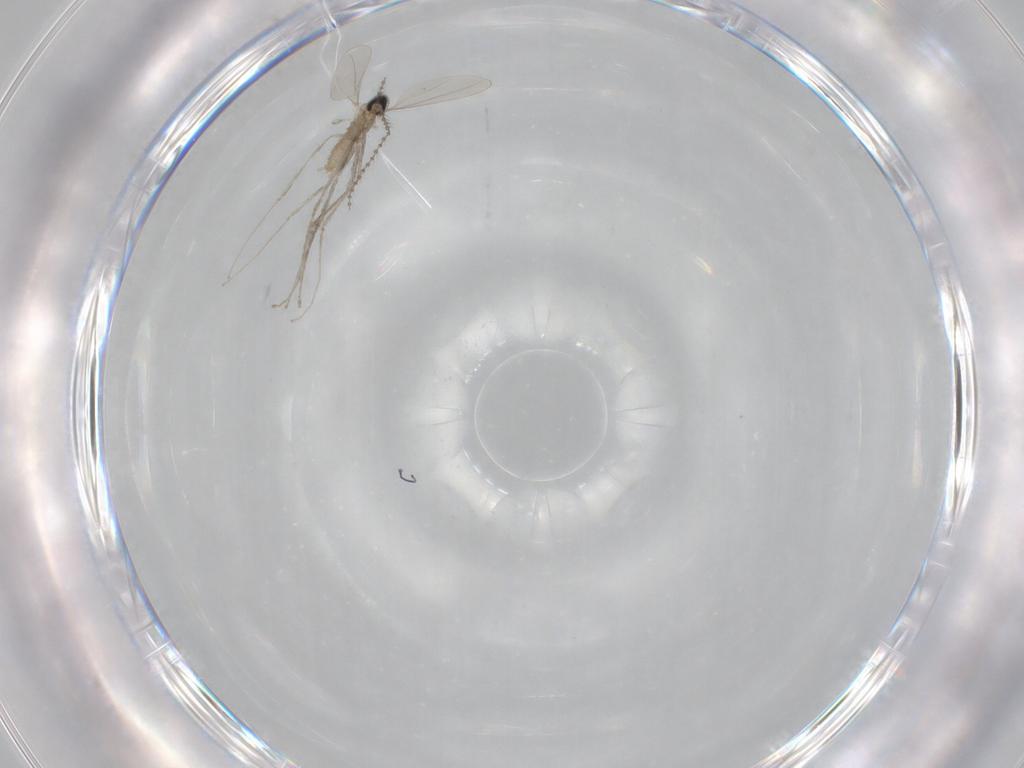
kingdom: Animalia
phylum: Arthropoda
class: Insecta
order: Diptera
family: Cecidomyiidae
